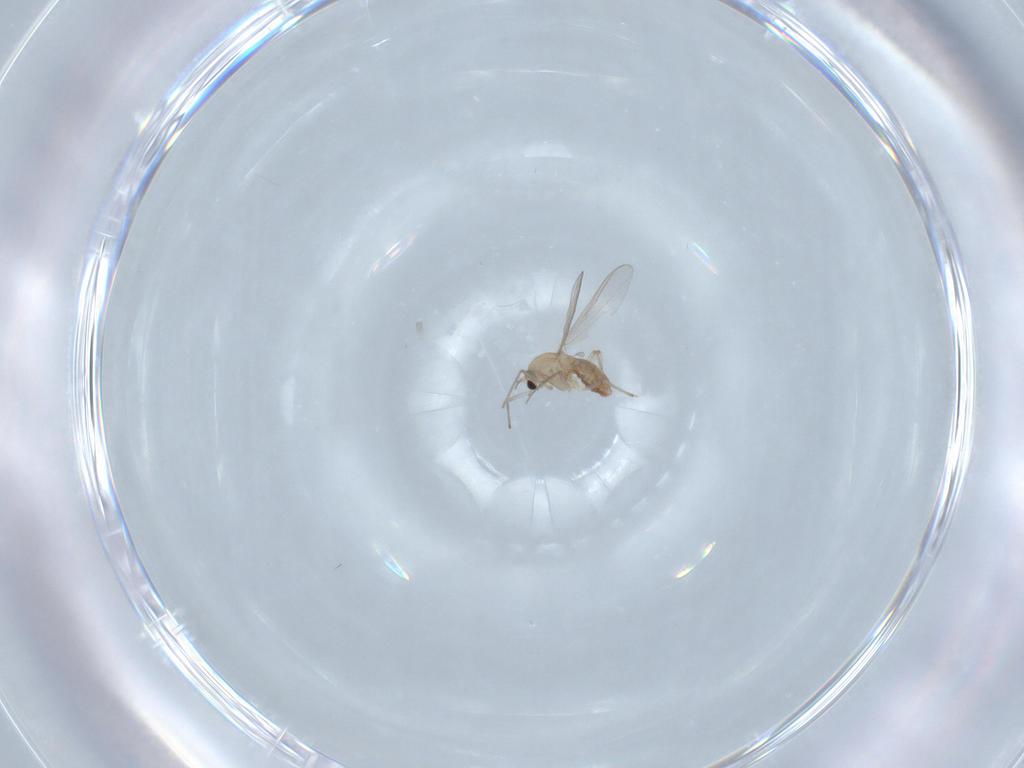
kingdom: Animalia
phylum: Arthropoda
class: Insecta
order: Diptera
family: Chironomidae
